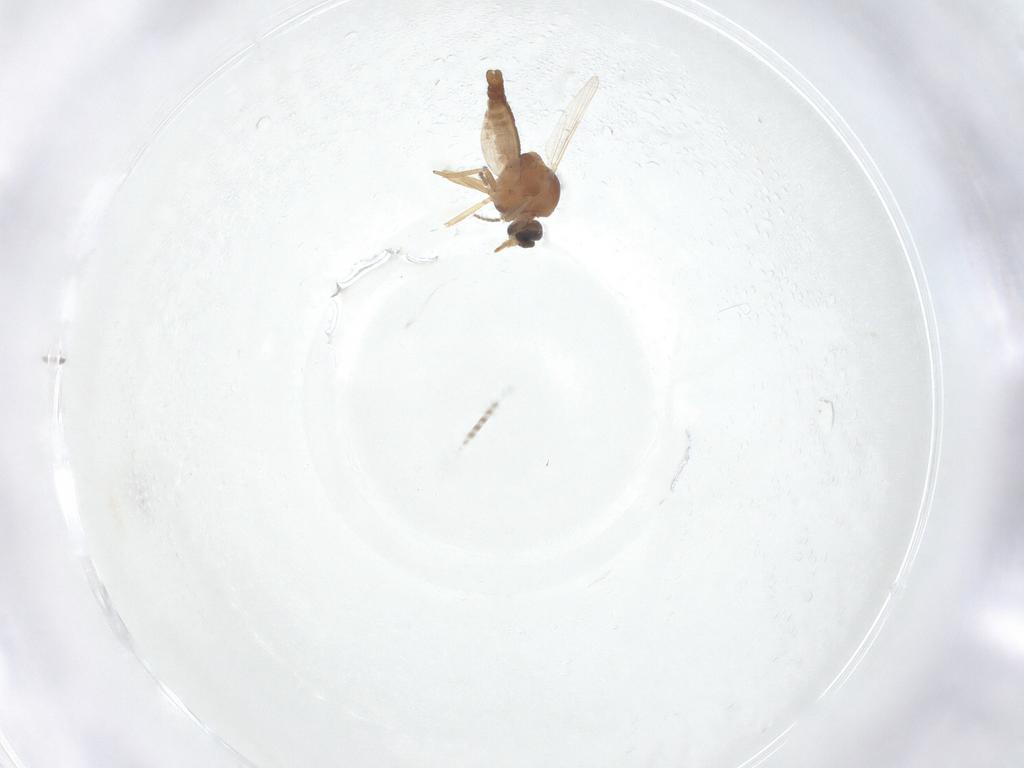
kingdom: Animalia
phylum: Arthropoda
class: Insecta
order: Diptera
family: Ceratopogonidae
